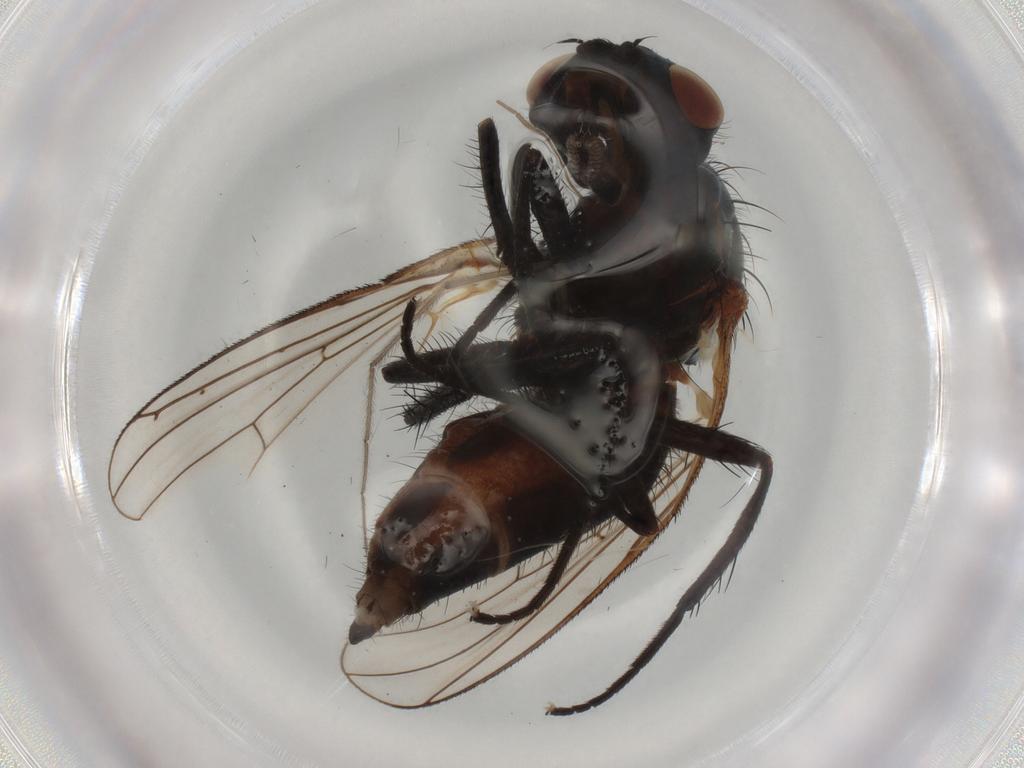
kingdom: Animalia
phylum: Arthropoda
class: Insecta
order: Diptera
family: Anthomyiidae
